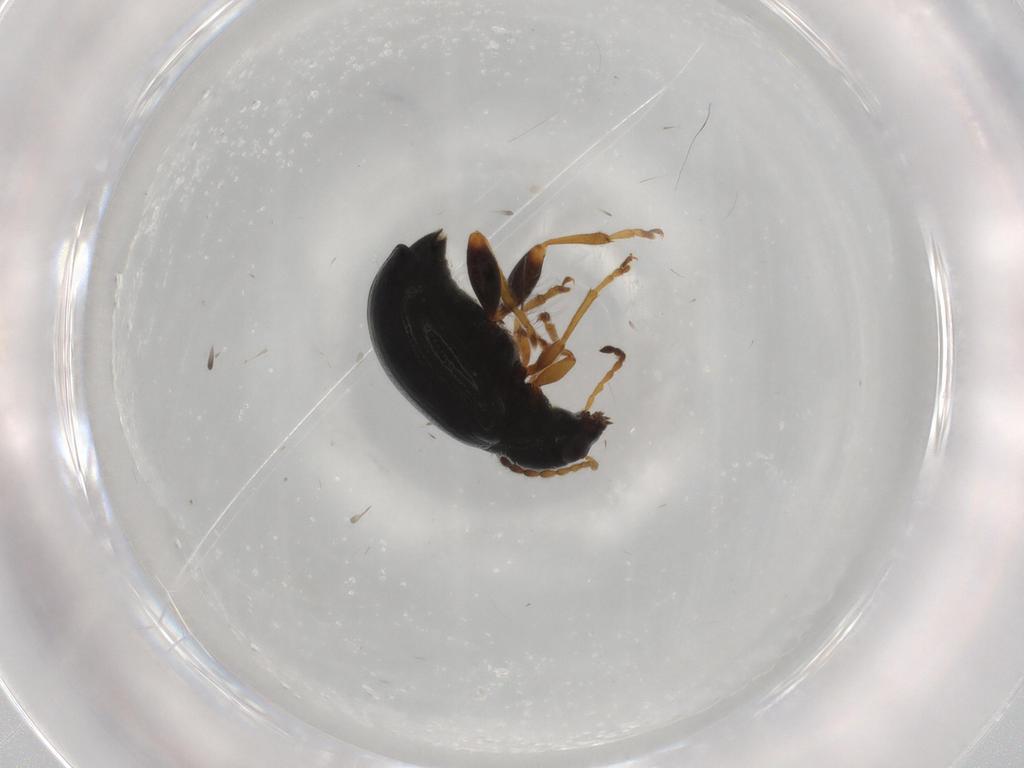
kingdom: Animalia
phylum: Arthropoda
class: Insecta
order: Coleoptera
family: Chrysomelidae
